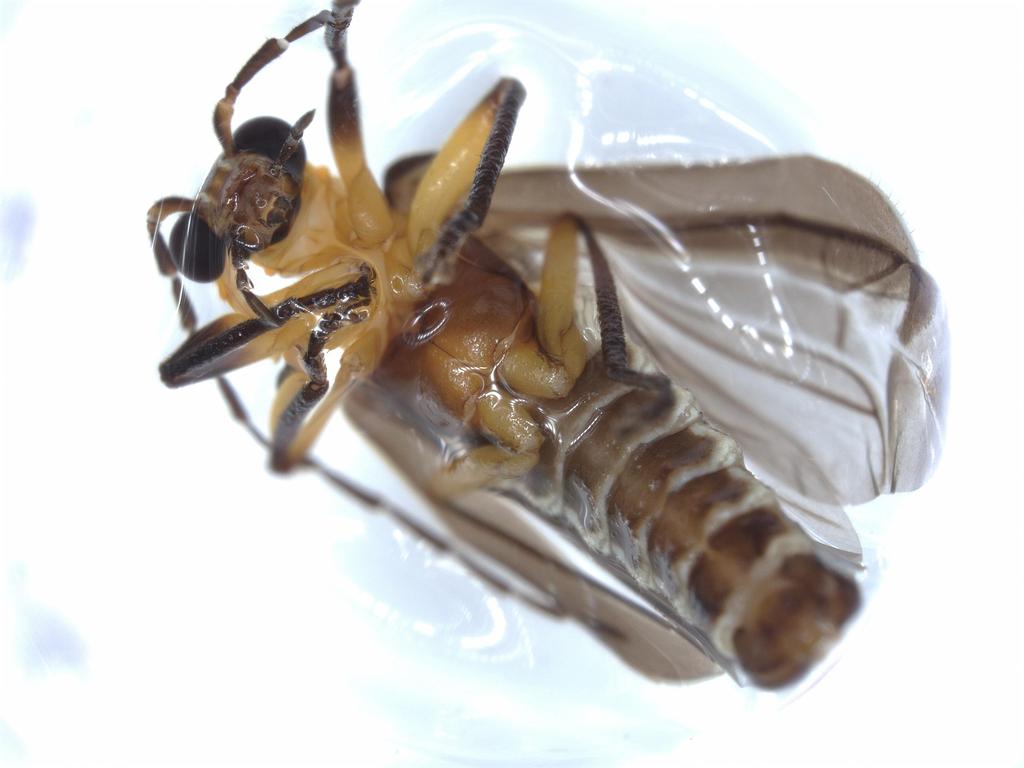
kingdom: Animalia
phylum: Arthropoda
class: Insecta
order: Coleoptera
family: Cantharidae
